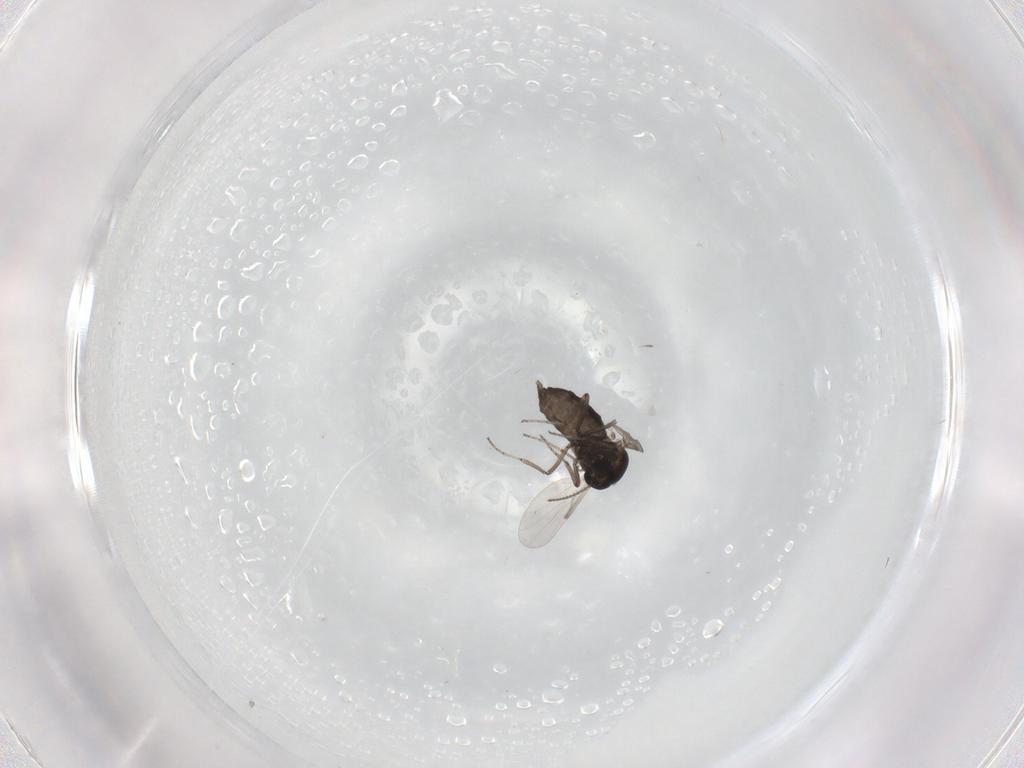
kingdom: Animalia
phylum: Arthropoda
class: Insecta
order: Diptera
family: Ceratopogonidae
